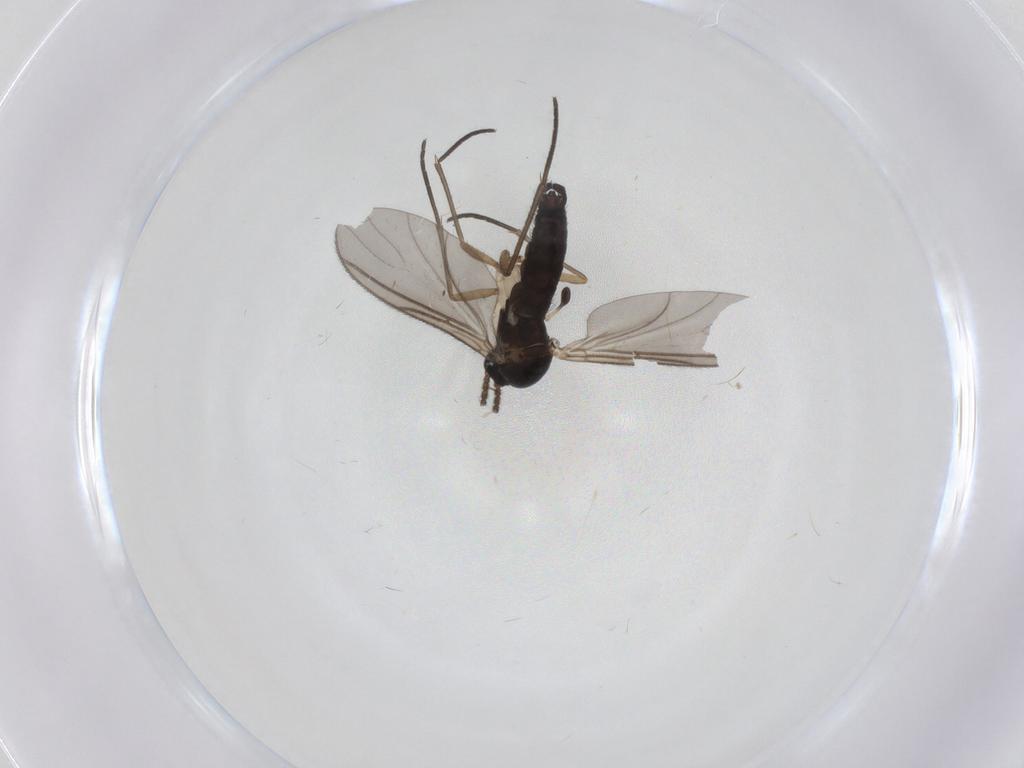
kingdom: Animalia
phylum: Arthropoda
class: Insecta
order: Diptera
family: Sciaridae
